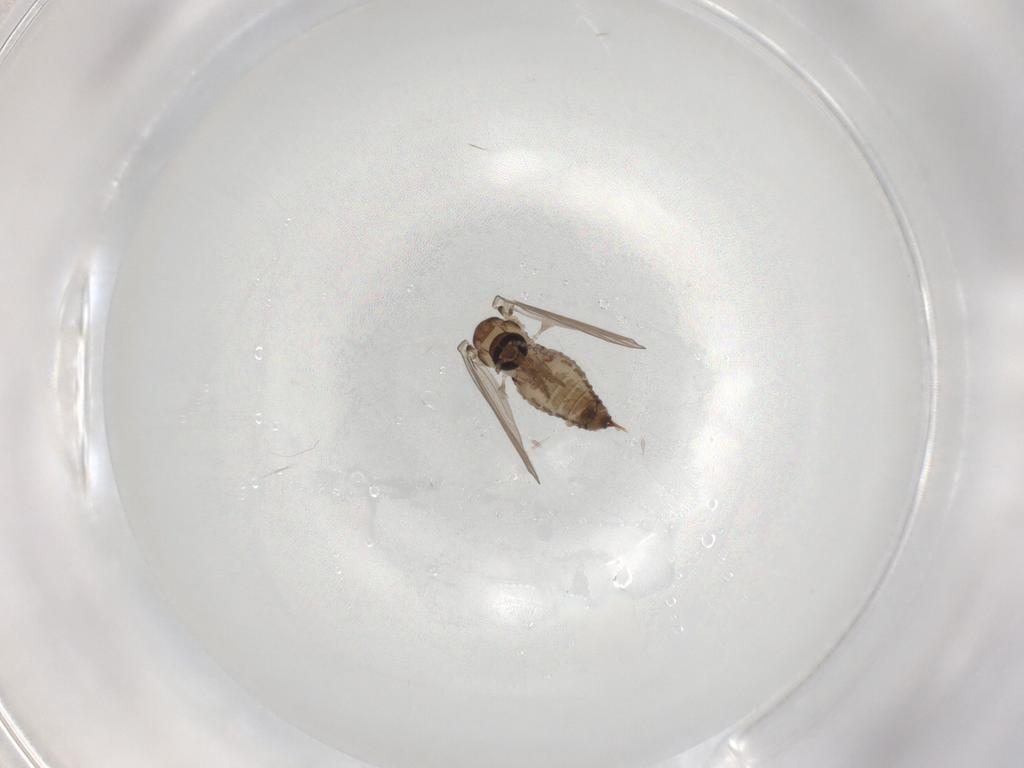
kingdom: Animalia
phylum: Arthropoda
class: Insecta
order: Diptera
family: Psychodidae
